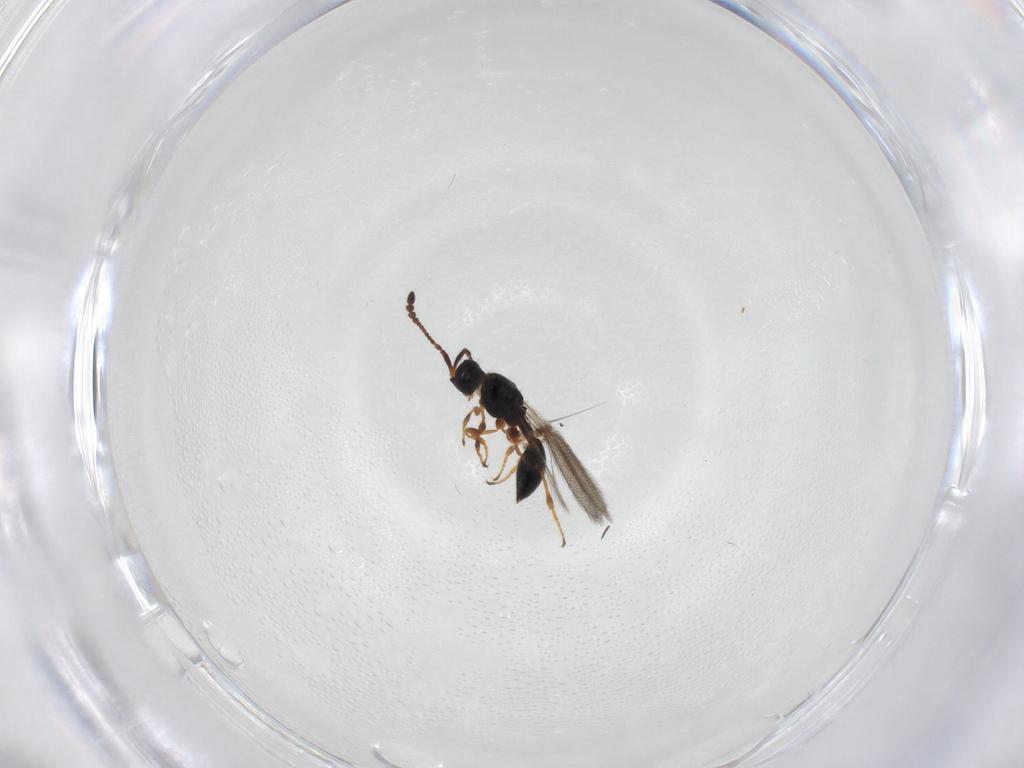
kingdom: Animalia
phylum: Arthropoda
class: Insecta
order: Hymenoptera
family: Diapriidae
